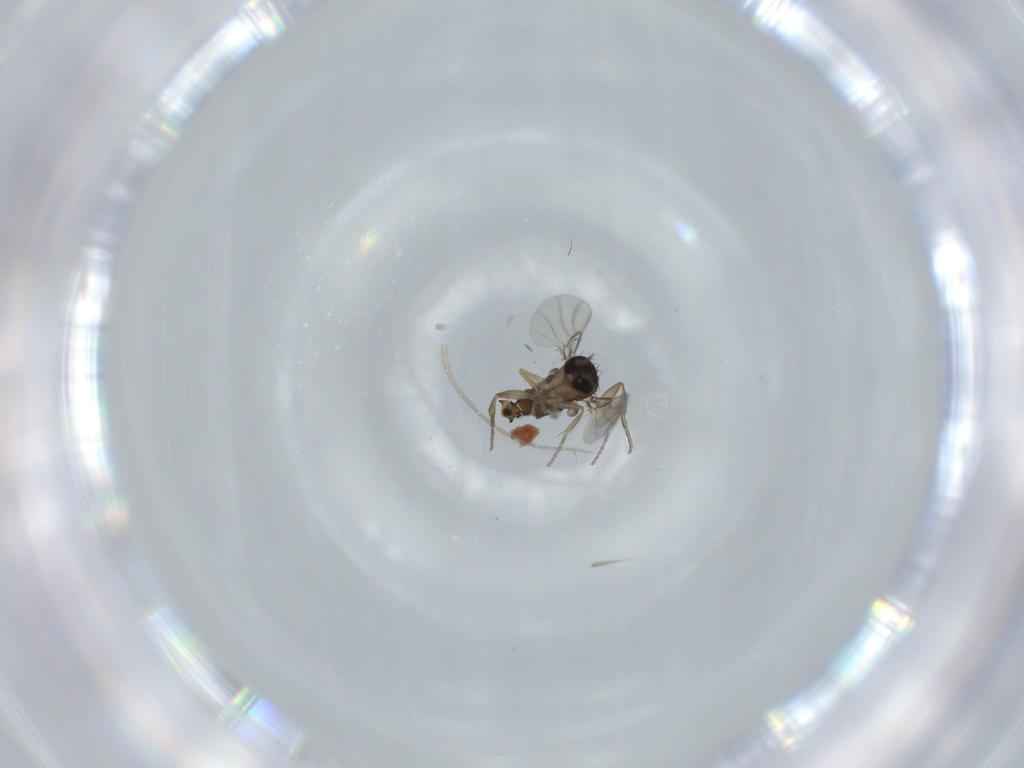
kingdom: Animalia
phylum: Arthropoda
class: Insecta
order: Diptera
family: Phoridae
